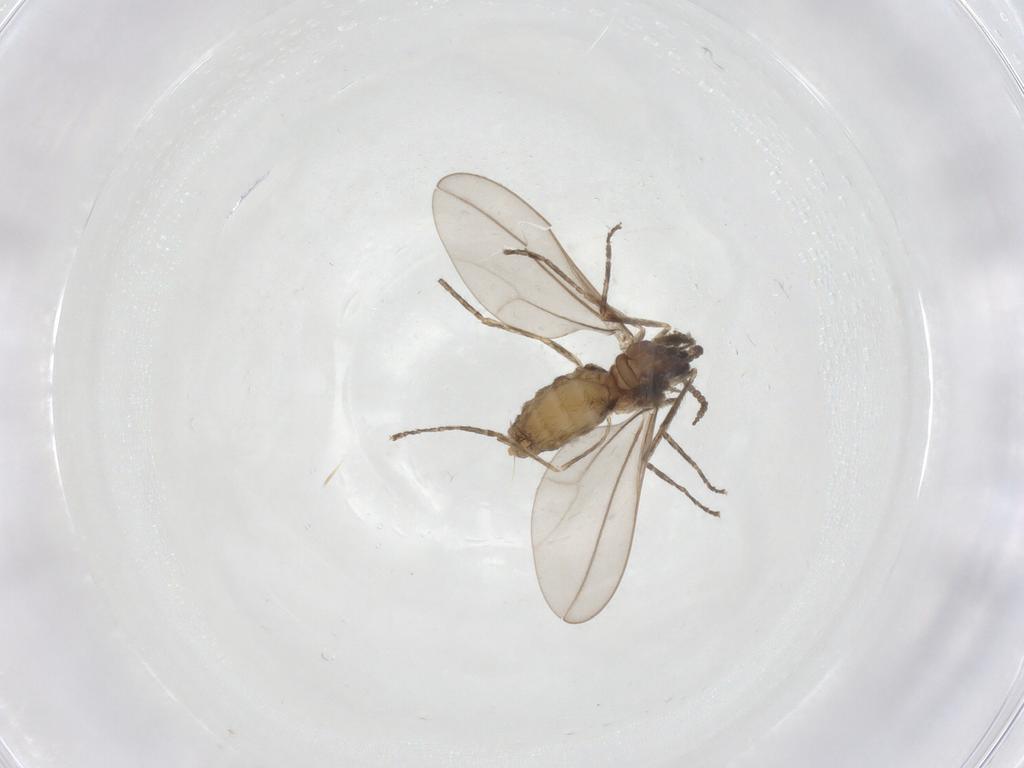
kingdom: Animalia
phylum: Arthropoda
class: Insecta
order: Diptera
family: Cecidomyiidae
